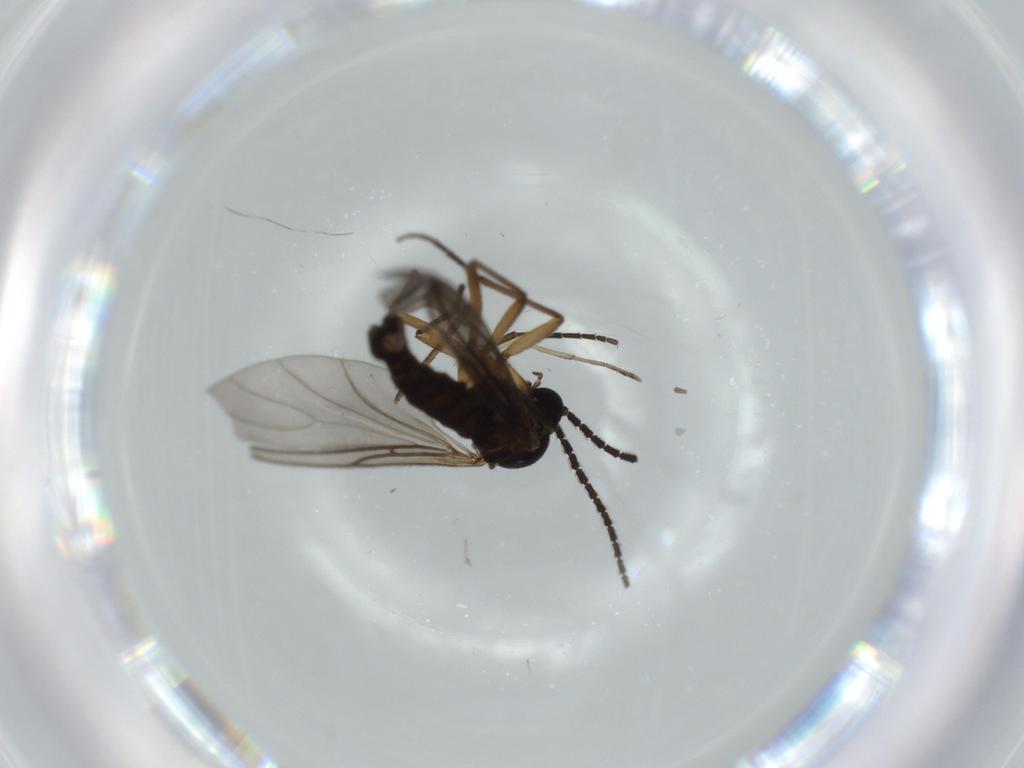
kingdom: Animalia
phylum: Arthropoda
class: Insecta
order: Diptera
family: Sciaridae
